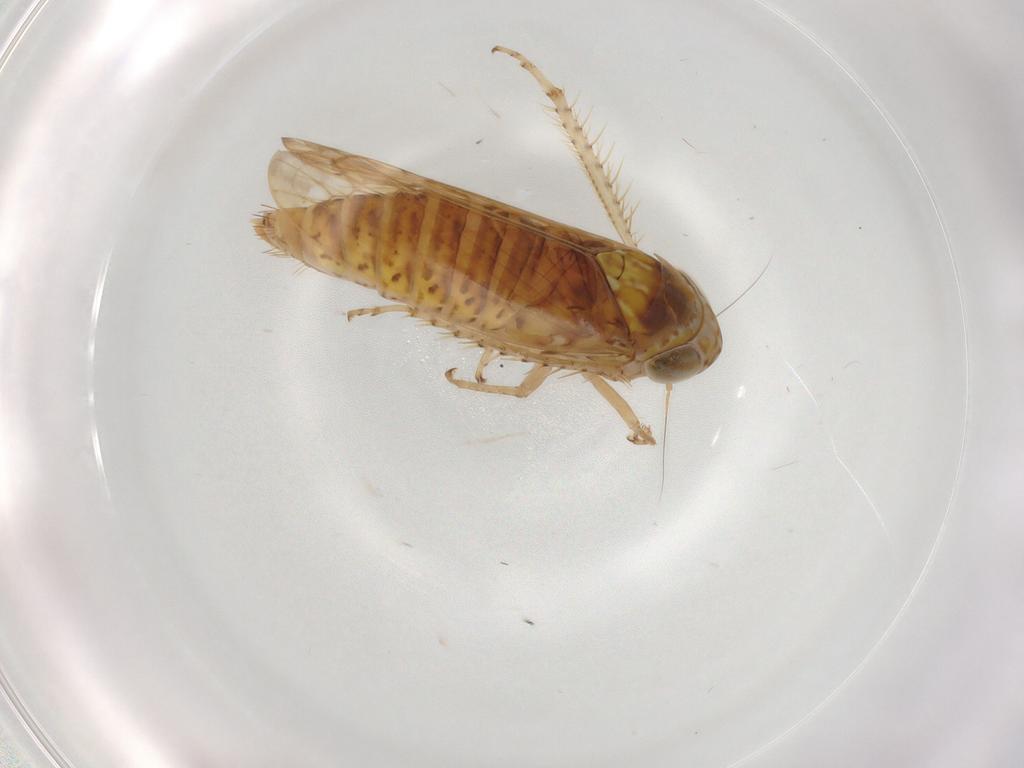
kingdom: Animalia
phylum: Arthropoda
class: Insecta
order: Hemiptera
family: Cicadellidae
